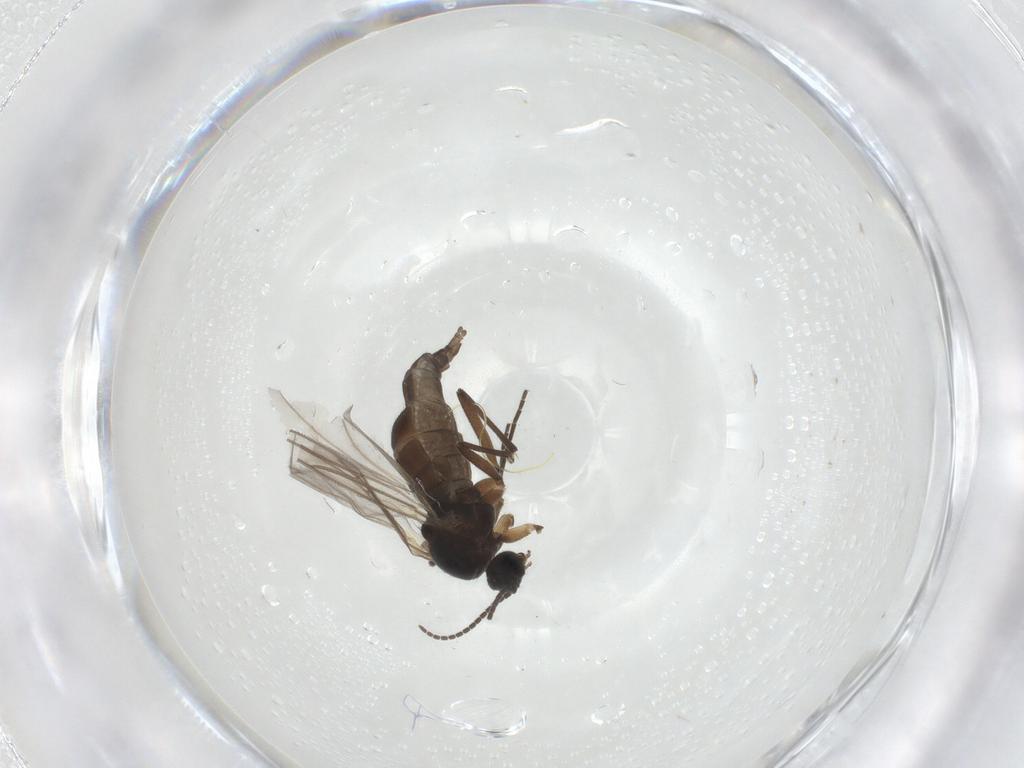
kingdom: Animalia
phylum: Arthropoda
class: Insecta
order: Diptera
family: Sciaridae
